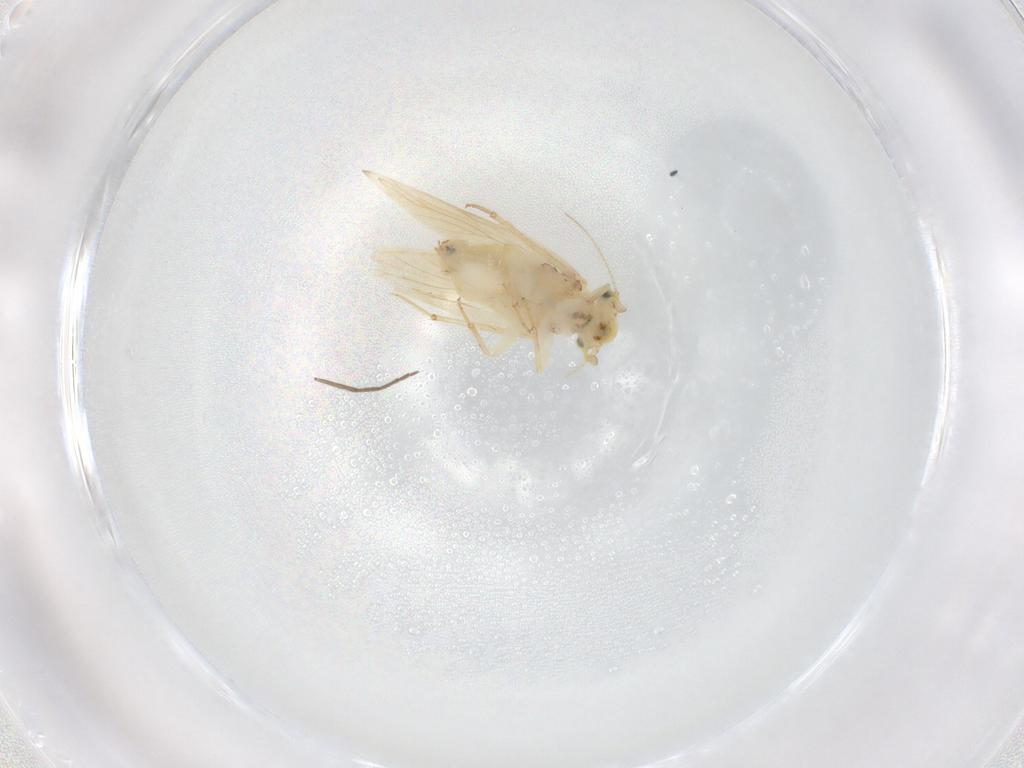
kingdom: Animalia
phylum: Arthropoda
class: Insecta
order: Psocodea
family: Lepidopsocidae
